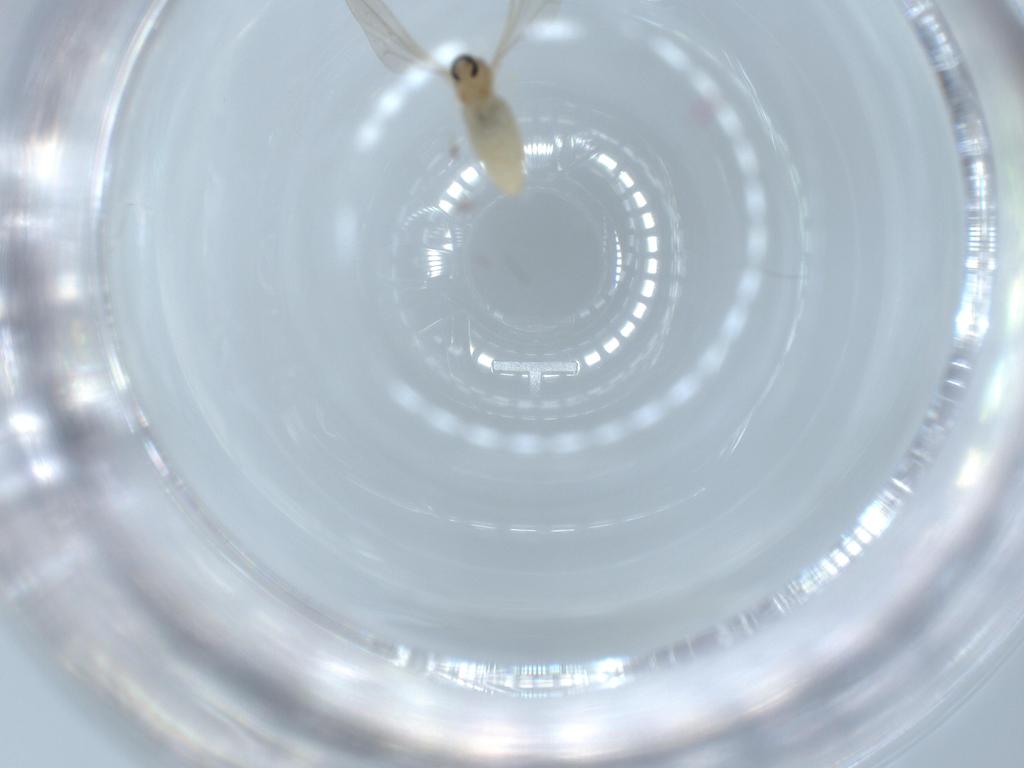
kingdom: Animalia
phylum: Arthropoda
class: Insecta
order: Diptera
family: Cecidomyiidae
